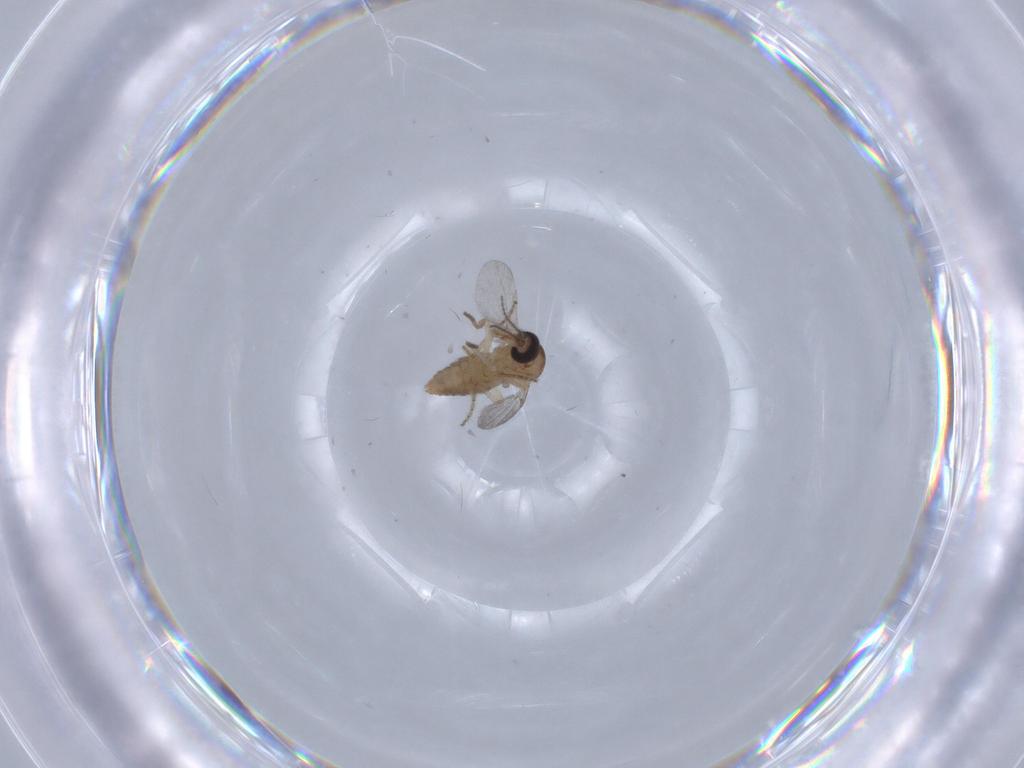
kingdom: Animalia
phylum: Arthropoda
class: Insecta
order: Diptera
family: Ceratopogonidae
